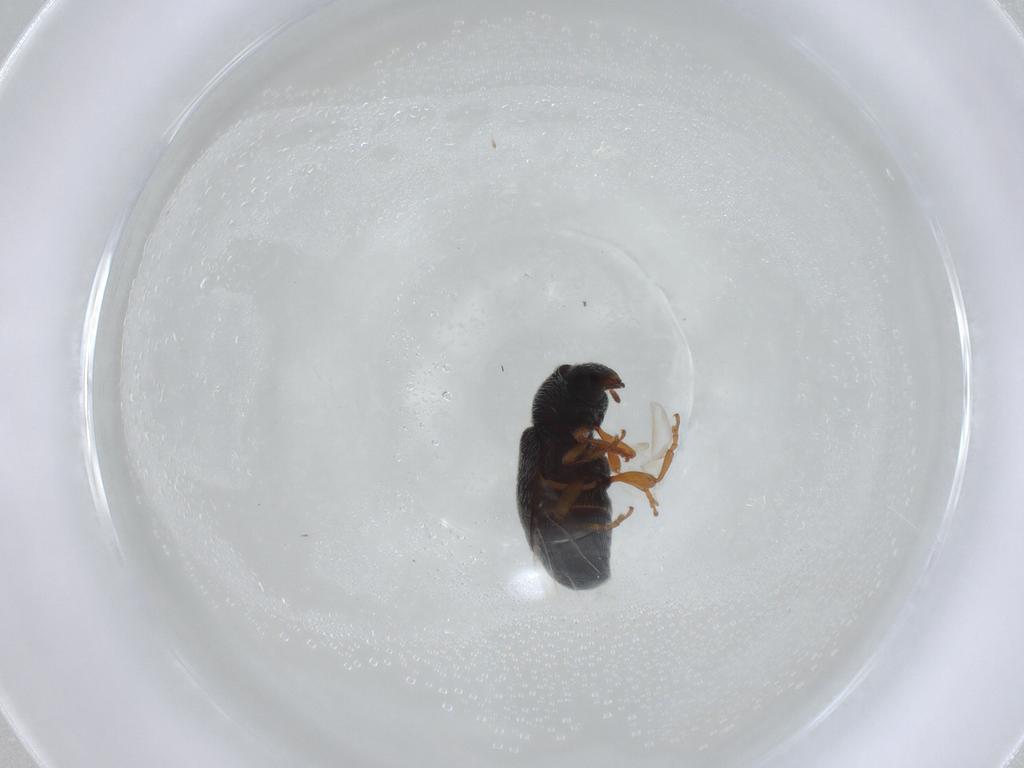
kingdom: Animalia
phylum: Arthropoda
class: Insecta
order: Coleoptera
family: Anthribidae
